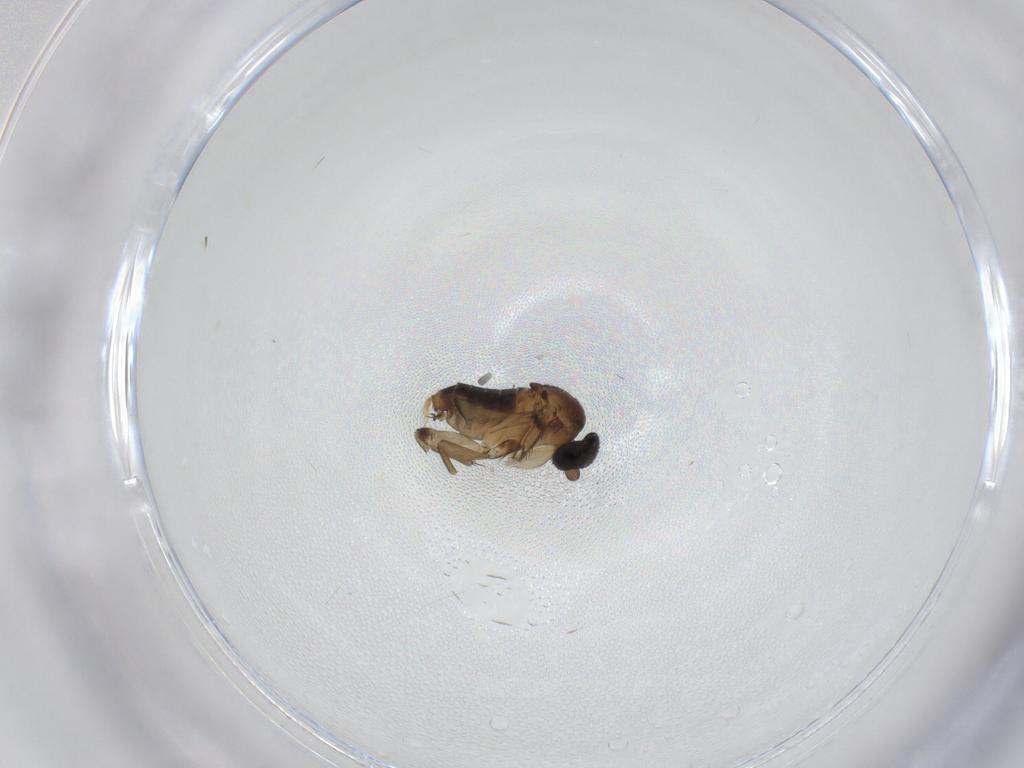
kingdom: Animalia
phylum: Arthropoda
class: Insecta
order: Diptera
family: Phoridae
